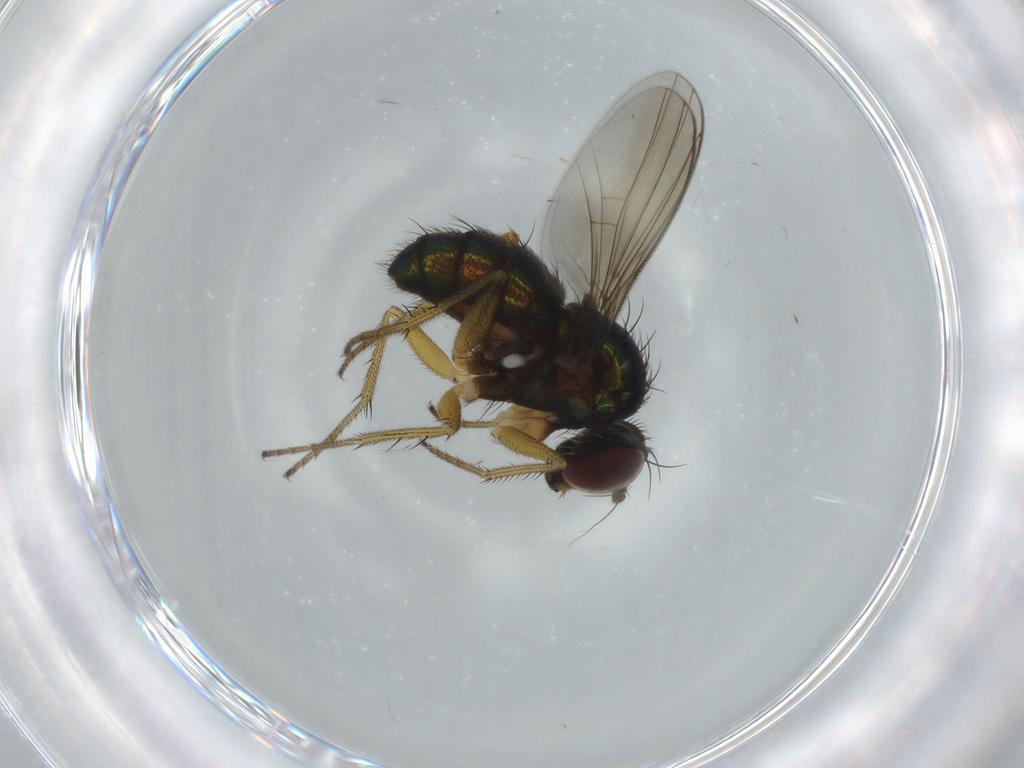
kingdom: Animalia
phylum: Arthropoda
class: Insecta
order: Diptera
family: Dolichopodidae
